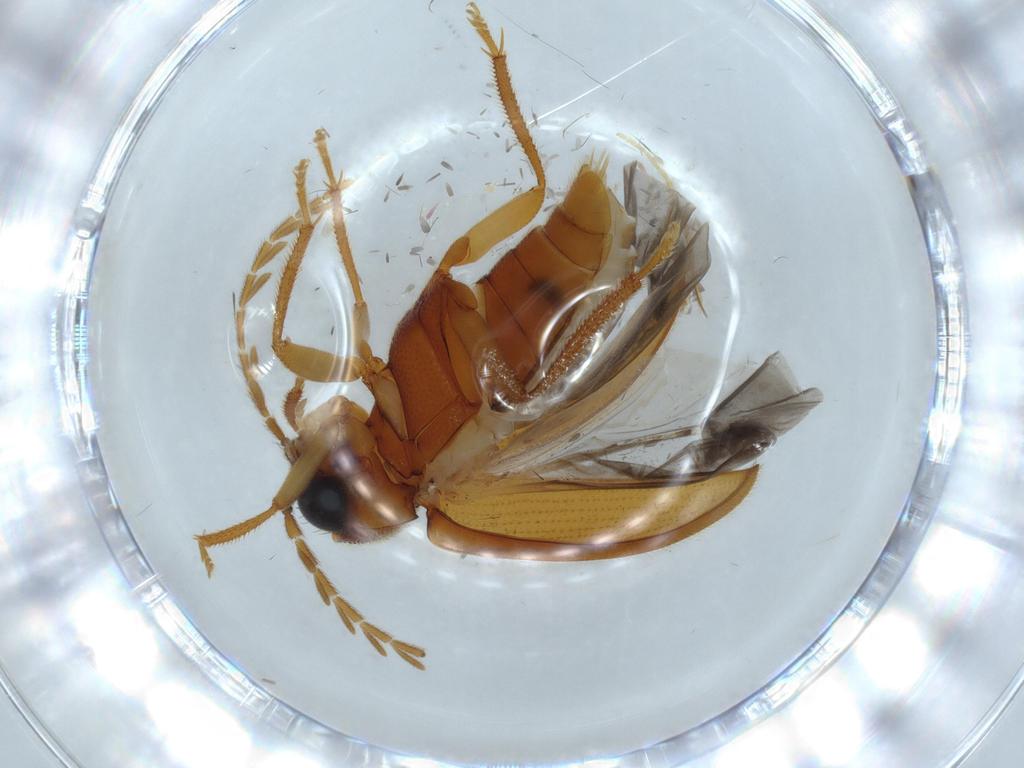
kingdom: Animalia
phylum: Arthropoda
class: Insecta
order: Coleoptera
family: Ptilodactylidae
